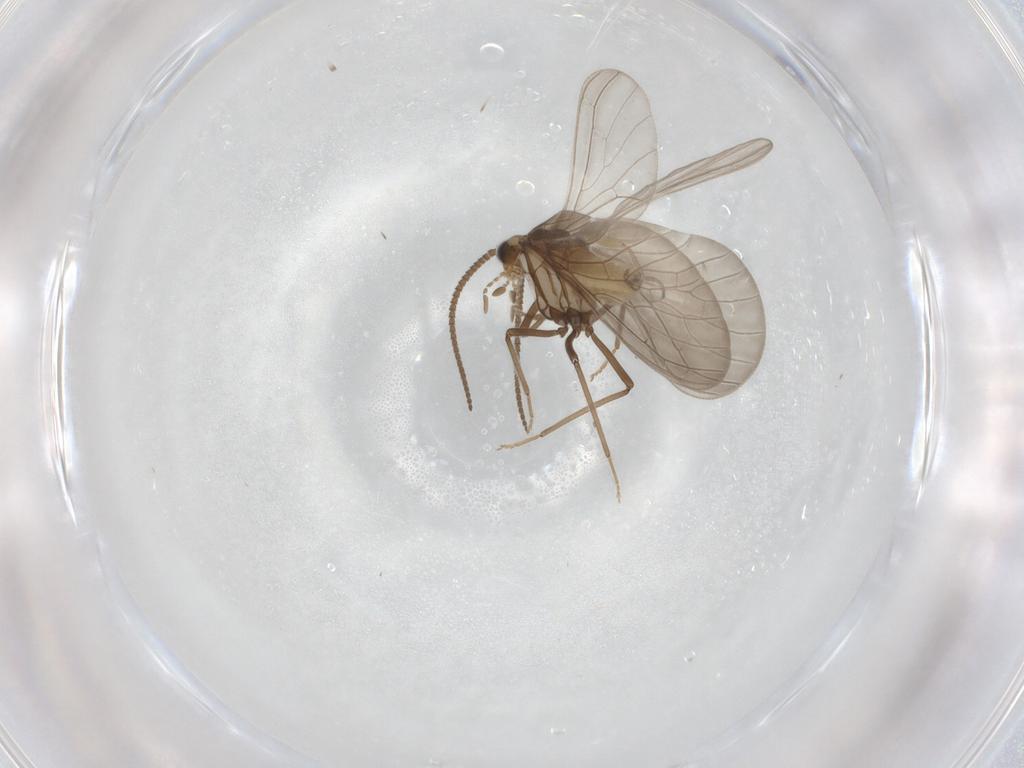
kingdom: Animalia
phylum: Arthropoda
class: Insecta
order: Neuroptera
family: Coniopterygidae
